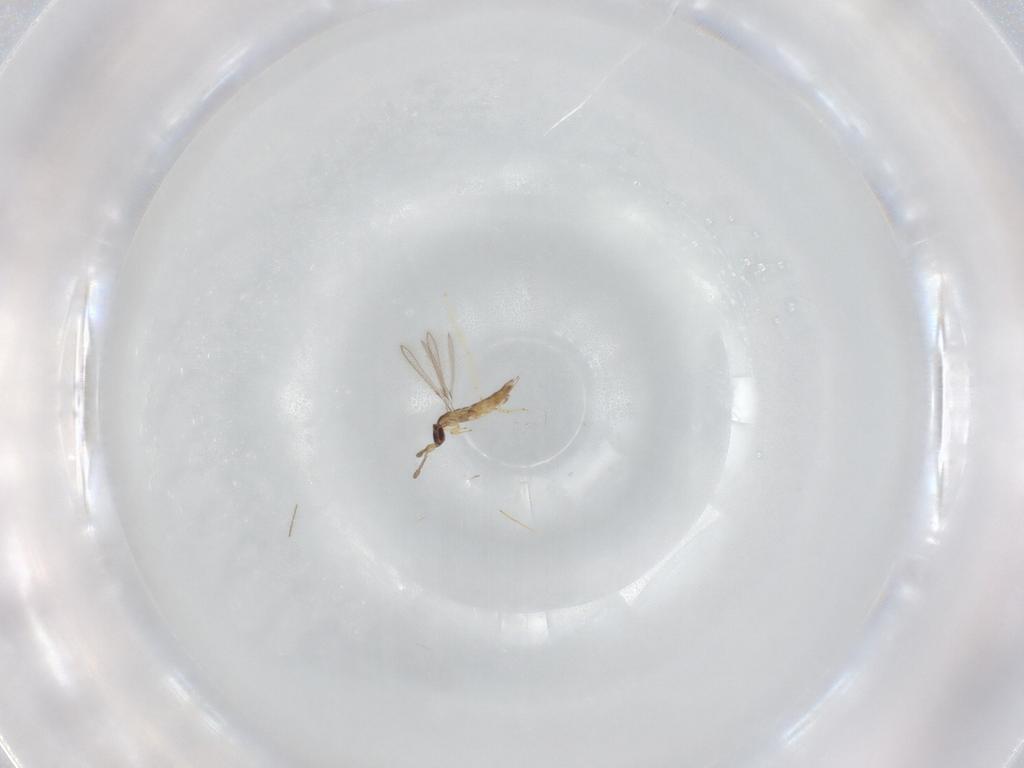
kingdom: Animalia
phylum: Arthropoda
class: Insecta
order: Hymenoptera
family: Mymaridae
